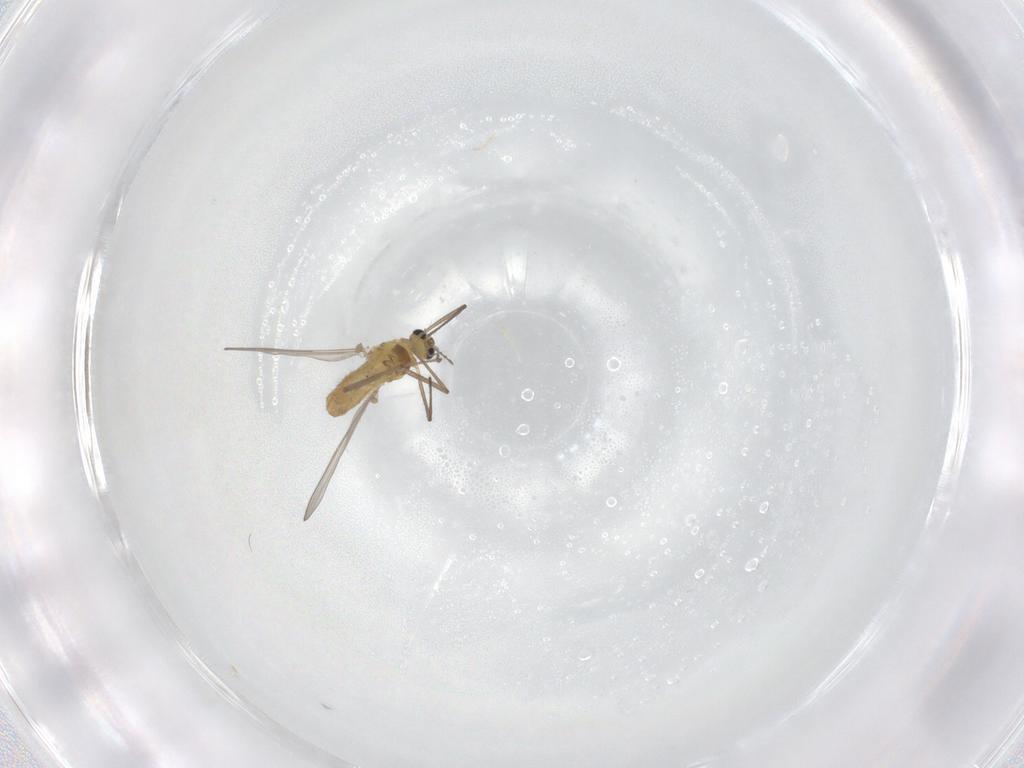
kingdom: Animalia
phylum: Arthropoda
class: Insecta
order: Diptera
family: Chironomidae
